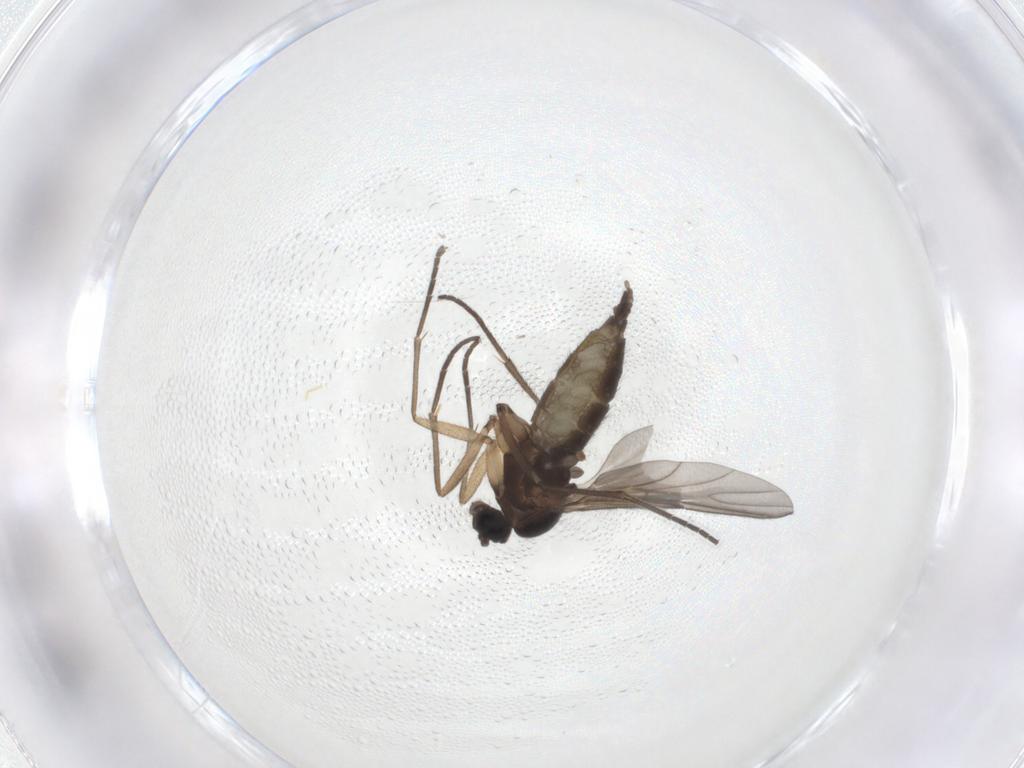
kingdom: Animalia
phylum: Arthropoda
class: Insecta
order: Diptera
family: Sciaridae
